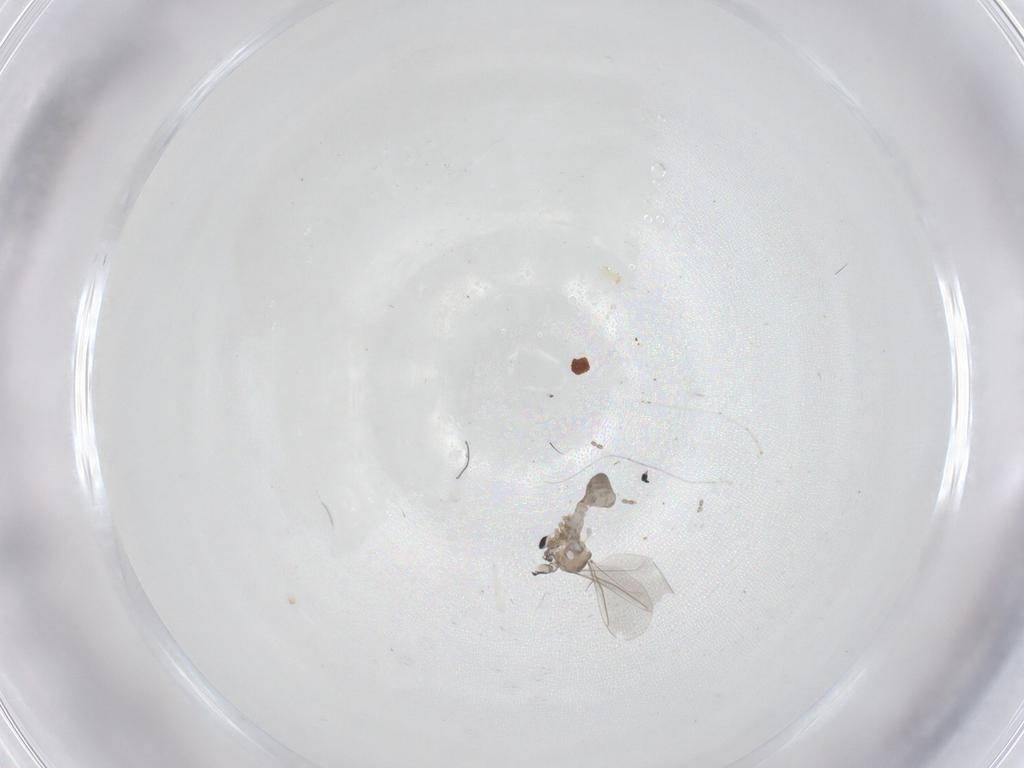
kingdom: Animalia
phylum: Arthropoda
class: Insecta
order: Diptera
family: Cecidomyiidae
